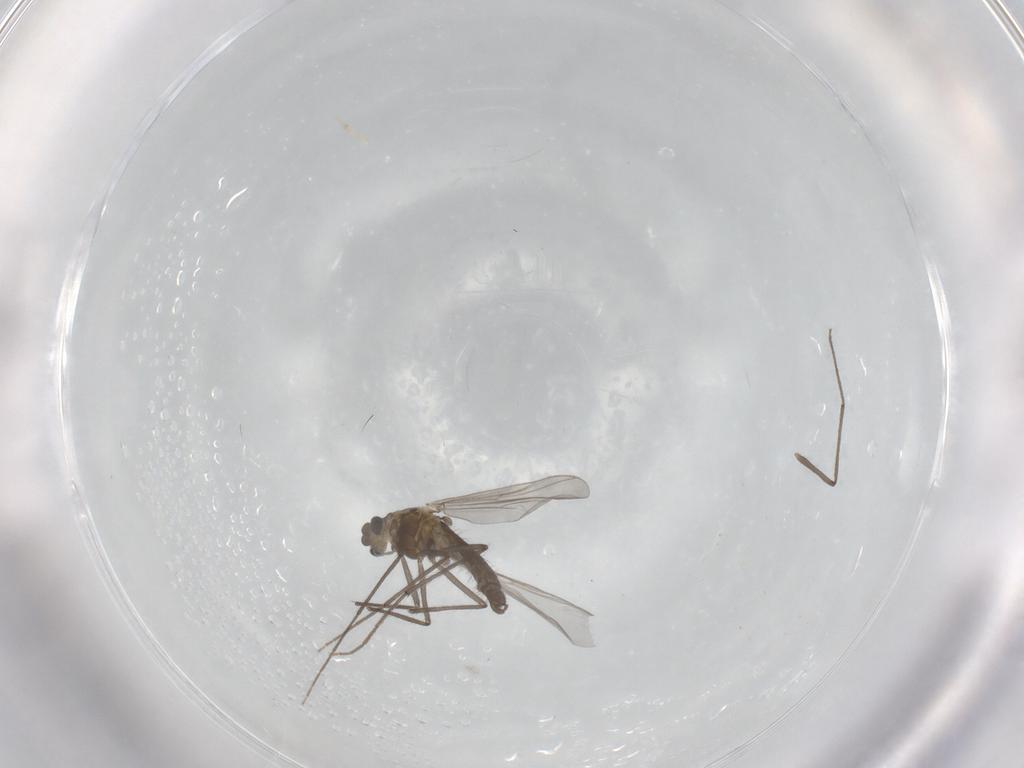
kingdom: Animalia
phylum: Arthropoda
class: Insecta
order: Diptera
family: Chironomidae
